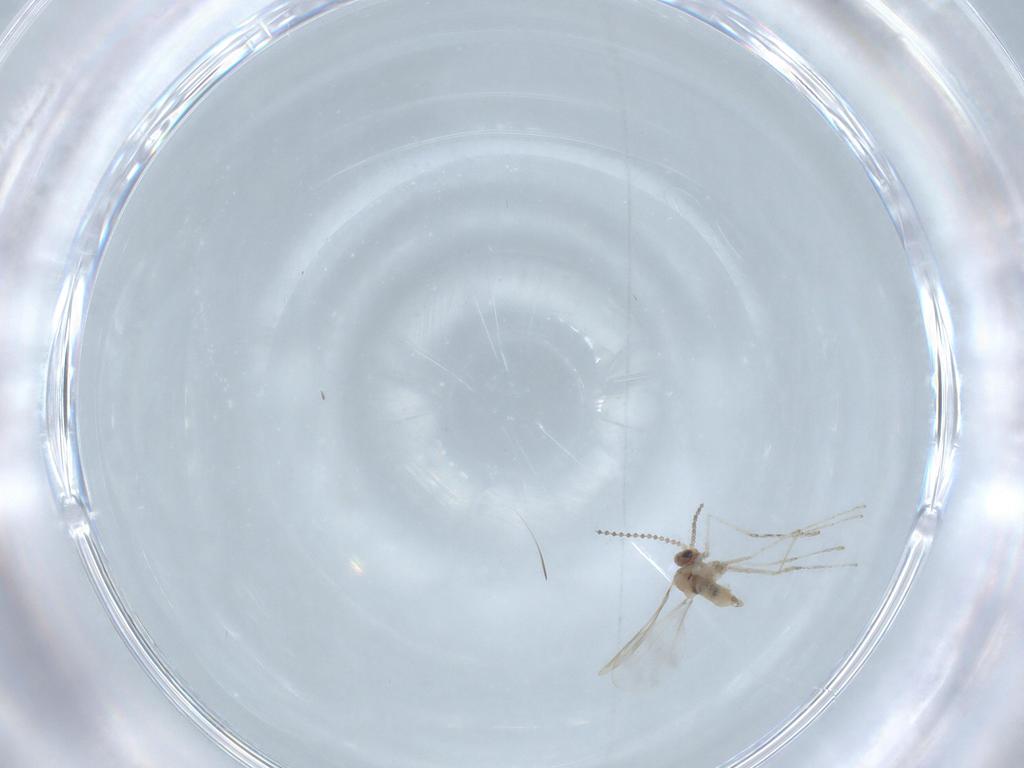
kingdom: Animalia
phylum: Arthropoda
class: Insecta
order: Diptera
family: Cecidomyiidae
